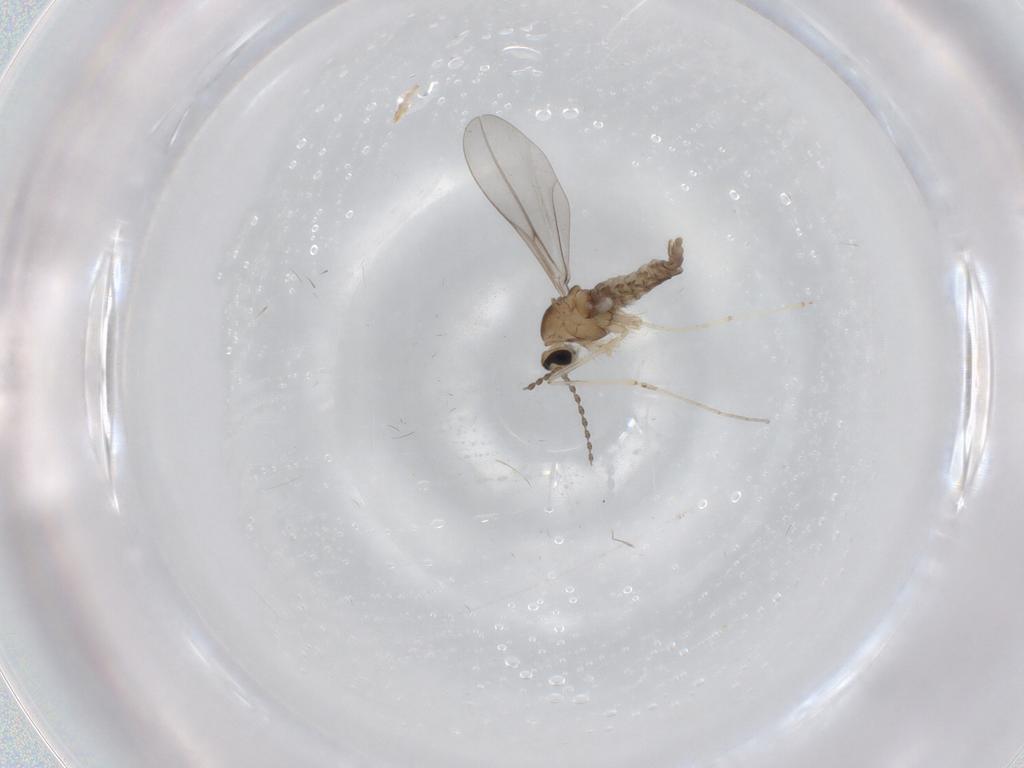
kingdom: Animalia
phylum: Arthropoda
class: Insecta
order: Diptera
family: Cecidomyiidae
